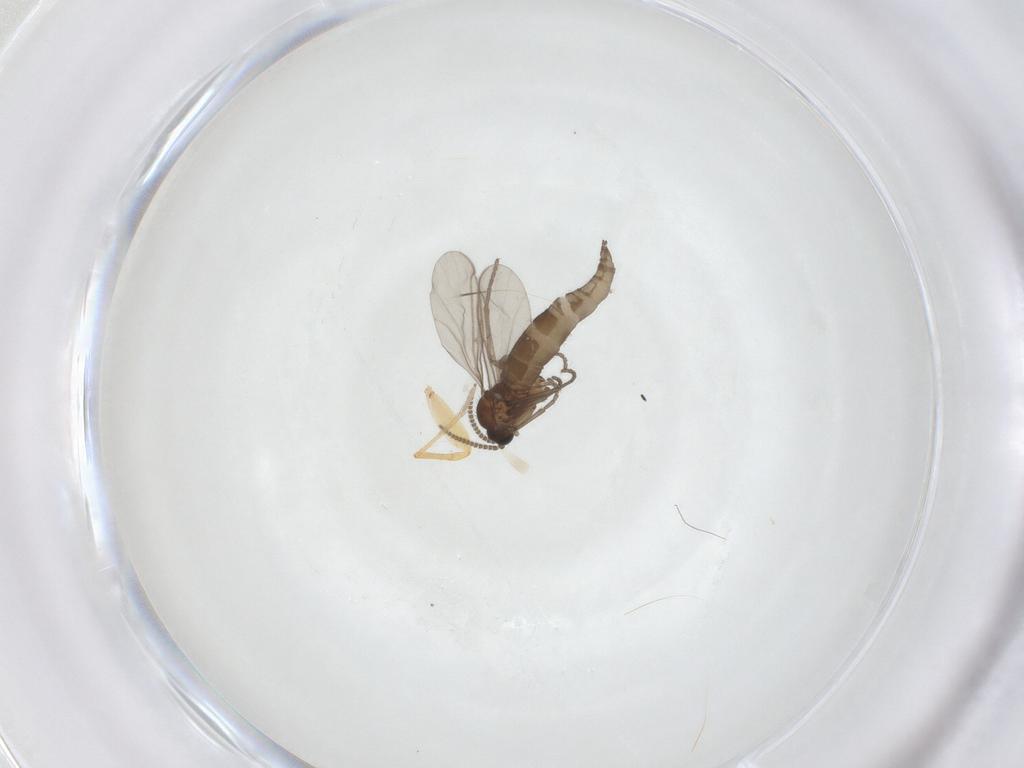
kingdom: Animalia
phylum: Arthropoda
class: Insecta
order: Diptera
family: Sciaridae
